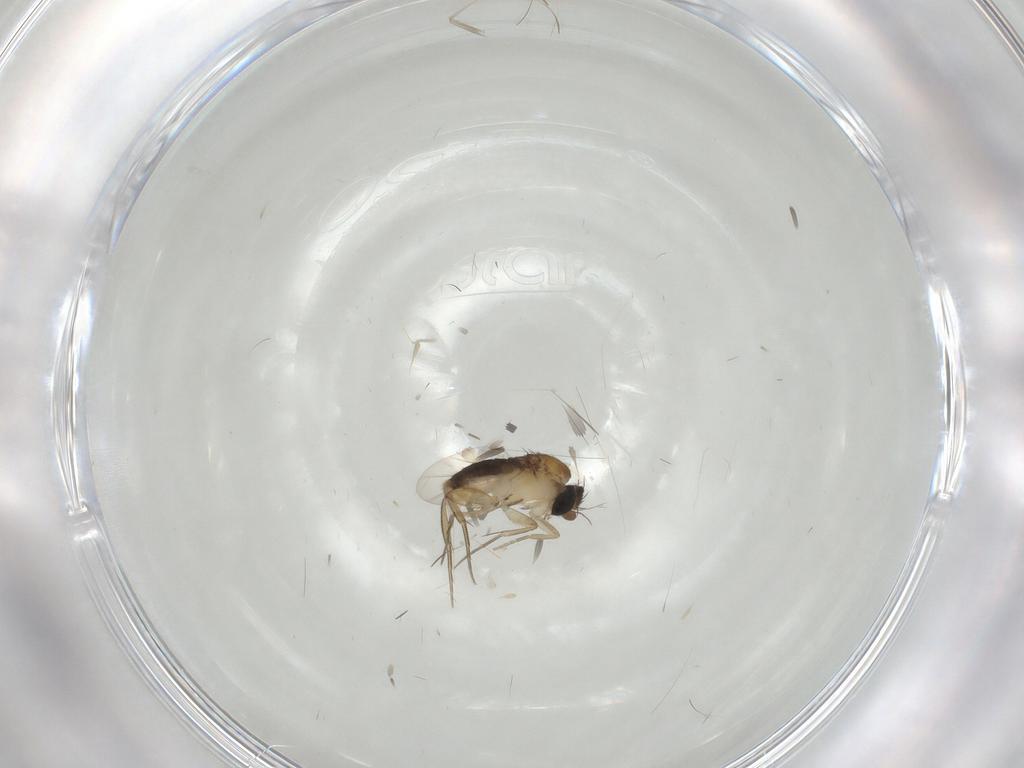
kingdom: Animalia
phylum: Arthropoda
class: Insecta
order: Diptera
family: Phoridae
